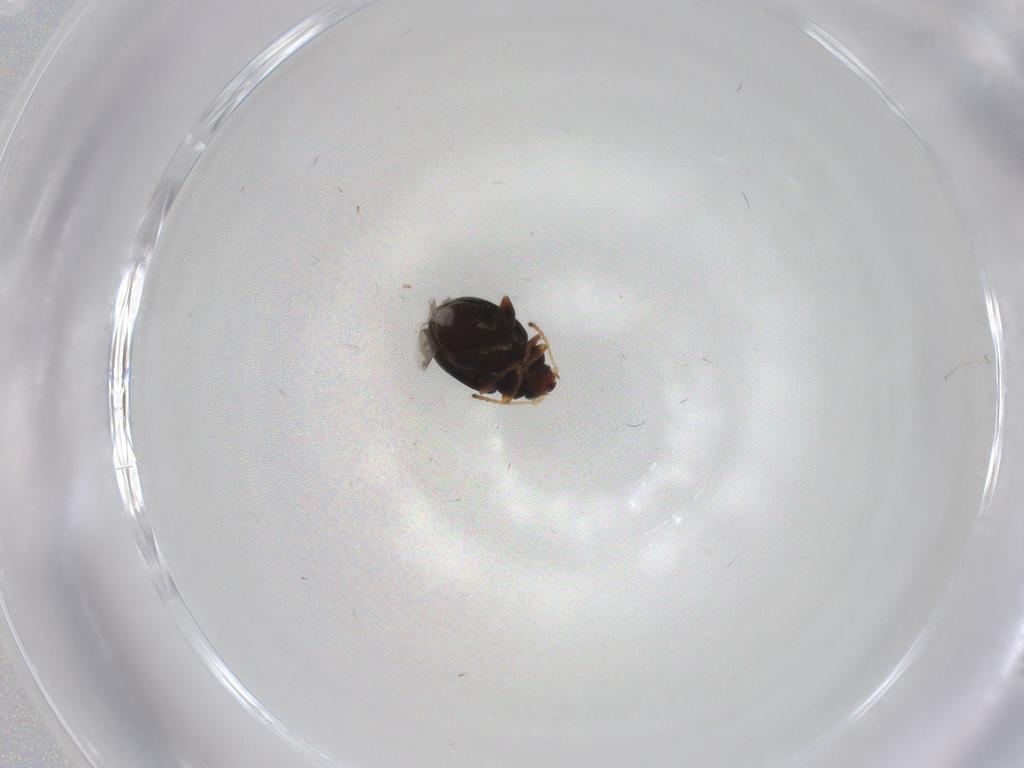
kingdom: Animalia
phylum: Arthropoda
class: Insecta
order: Coleoptera
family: Chrysomelidae
